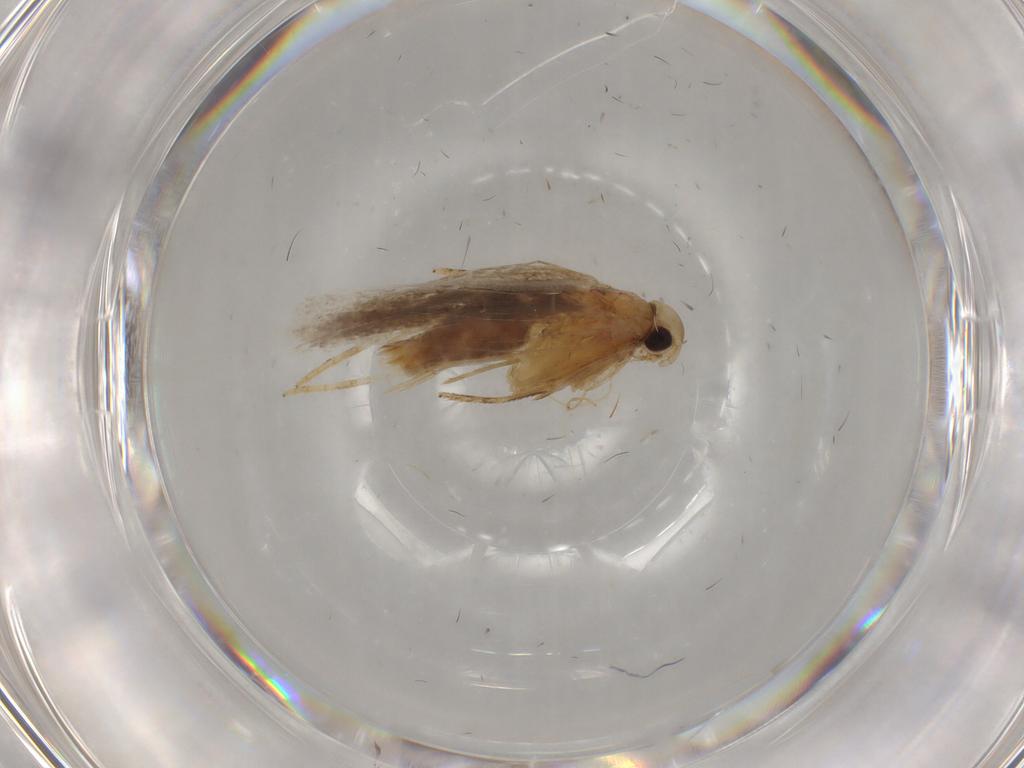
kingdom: Animalia
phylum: Arthropoda
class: Insecta
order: Lepidoptera
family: Gelechiidae
